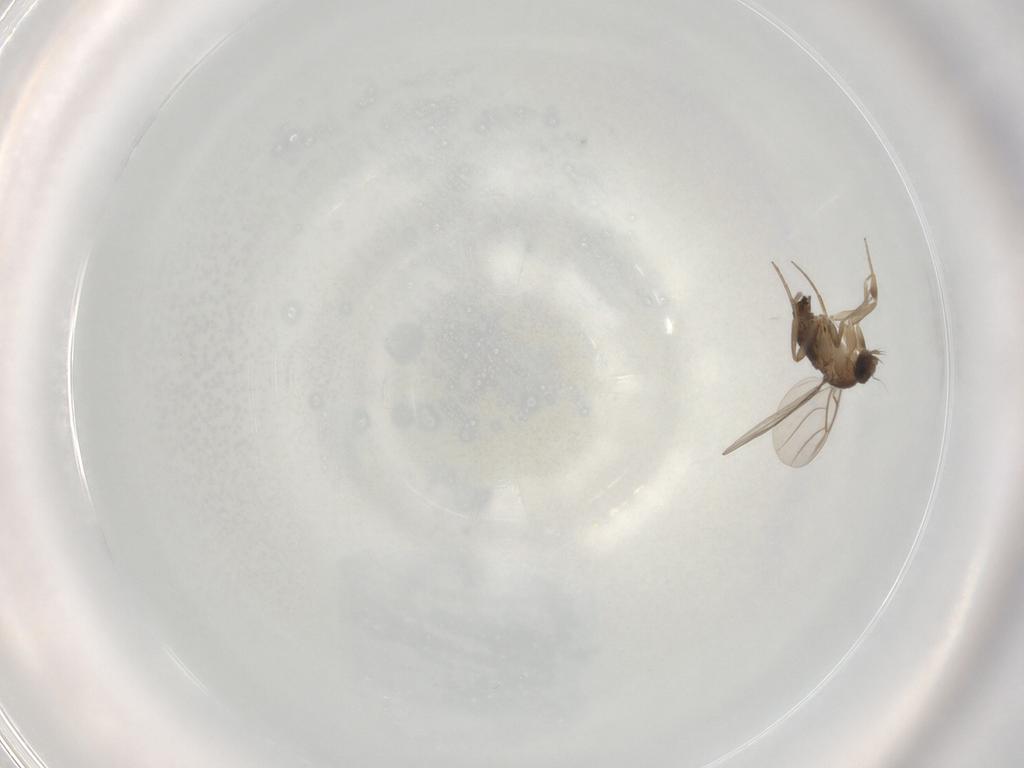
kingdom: Animalia
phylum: Arthropoda
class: Insecta
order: Diptera
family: Phoridae
